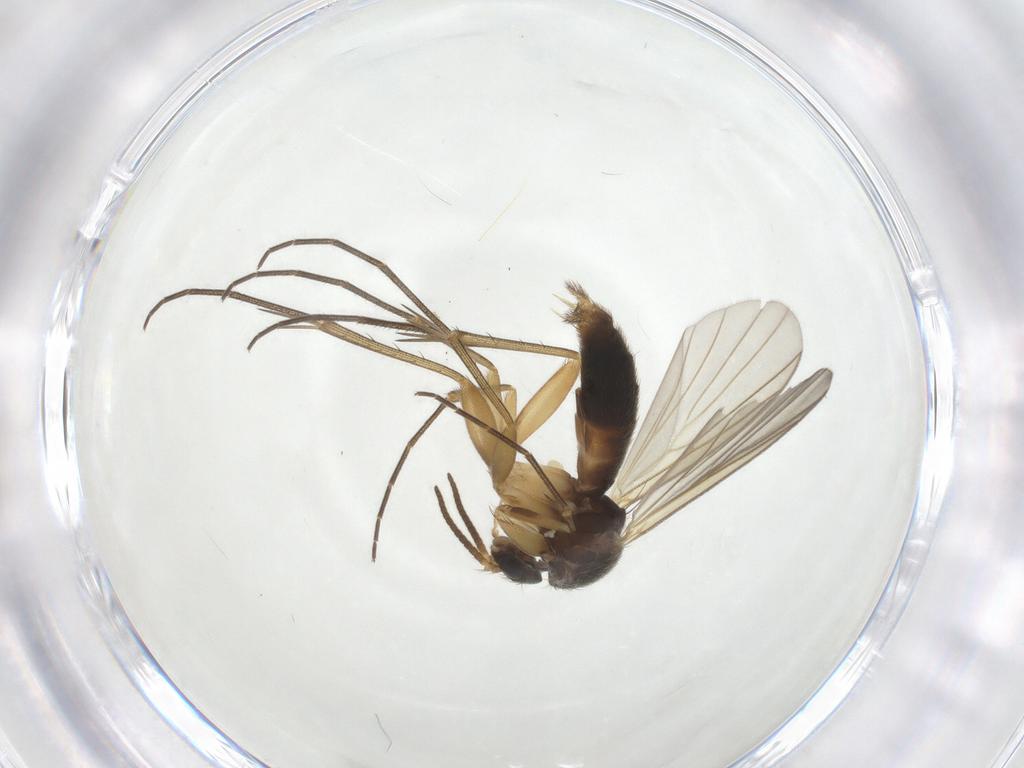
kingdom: Animalia
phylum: Arthropoda
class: Insecta
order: Diptera
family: Mycetophilidae
